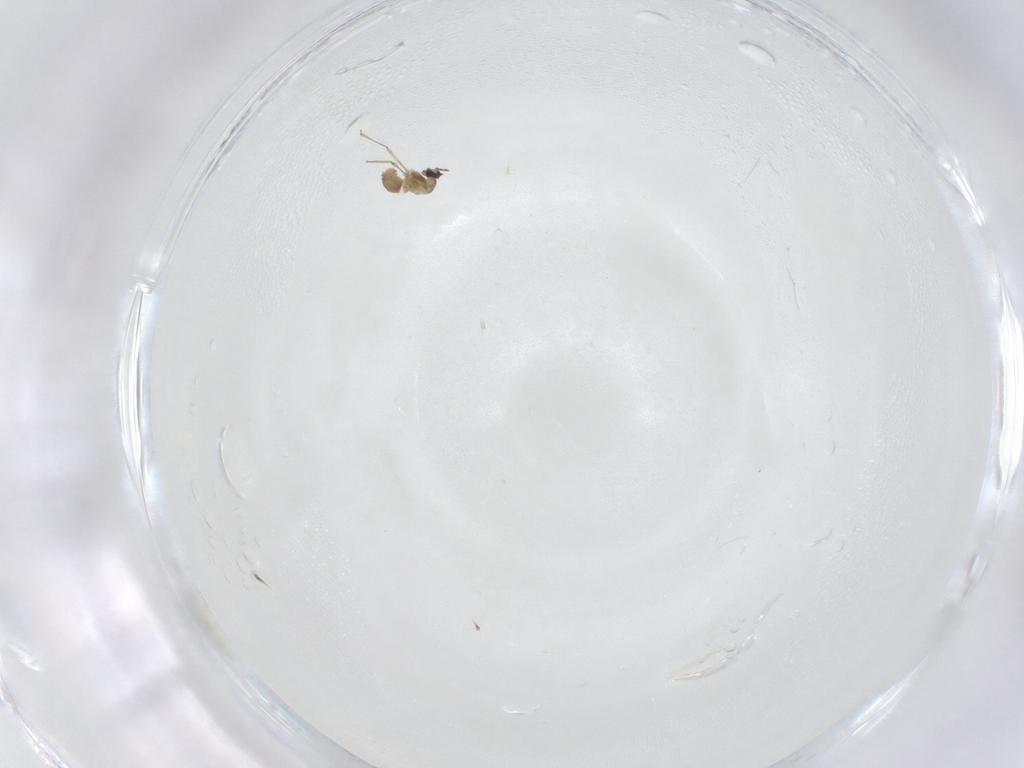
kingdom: Animalia
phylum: Arthropoda
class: Insecta
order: Diptera
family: Cecidomyiidae
